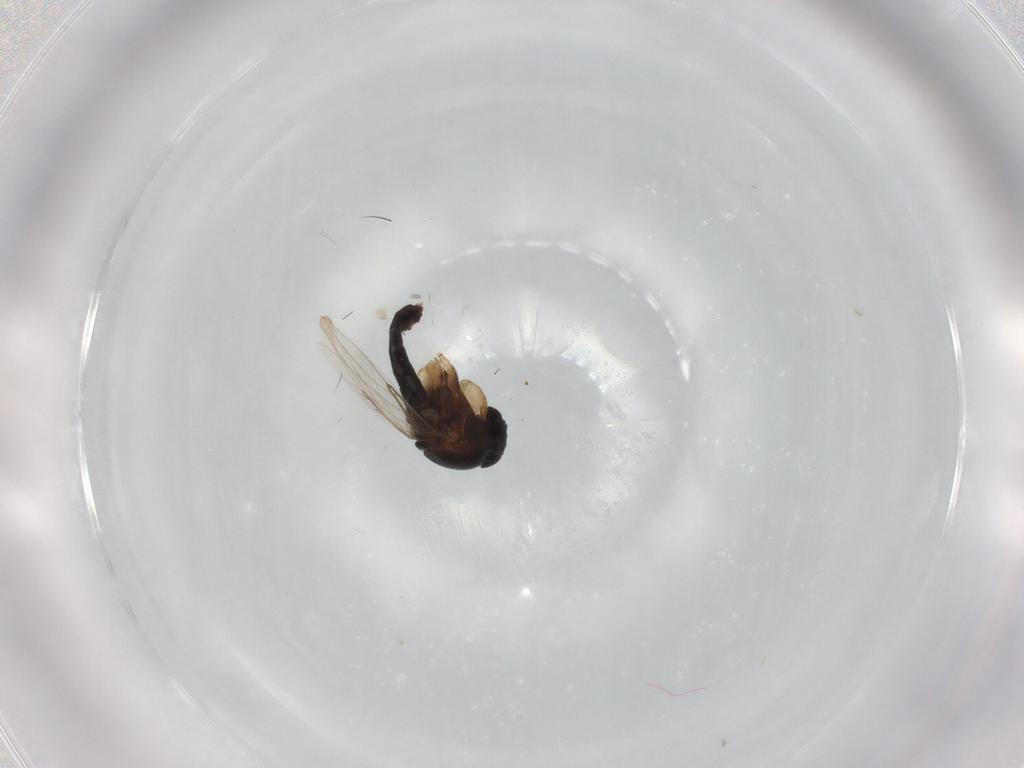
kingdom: Animalia
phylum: Arthropoda
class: Insecta
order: Diptera
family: Phoridae
